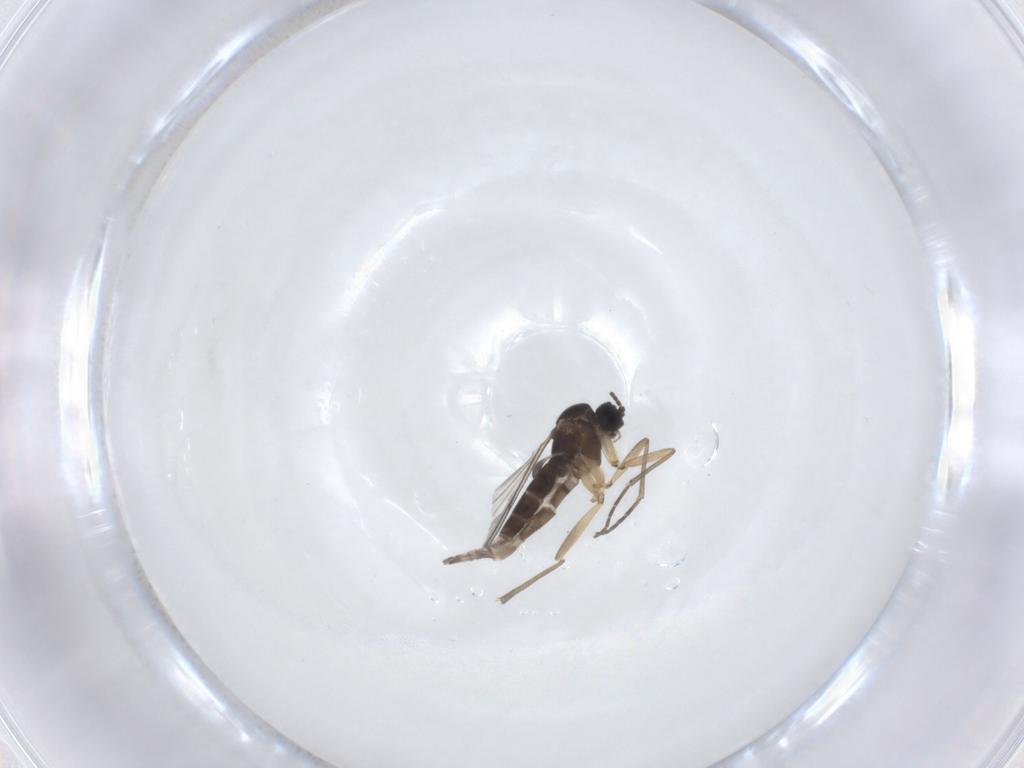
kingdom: Animalia
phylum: Arthropoda
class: Insecta
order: Diptera
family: Sciaridae
